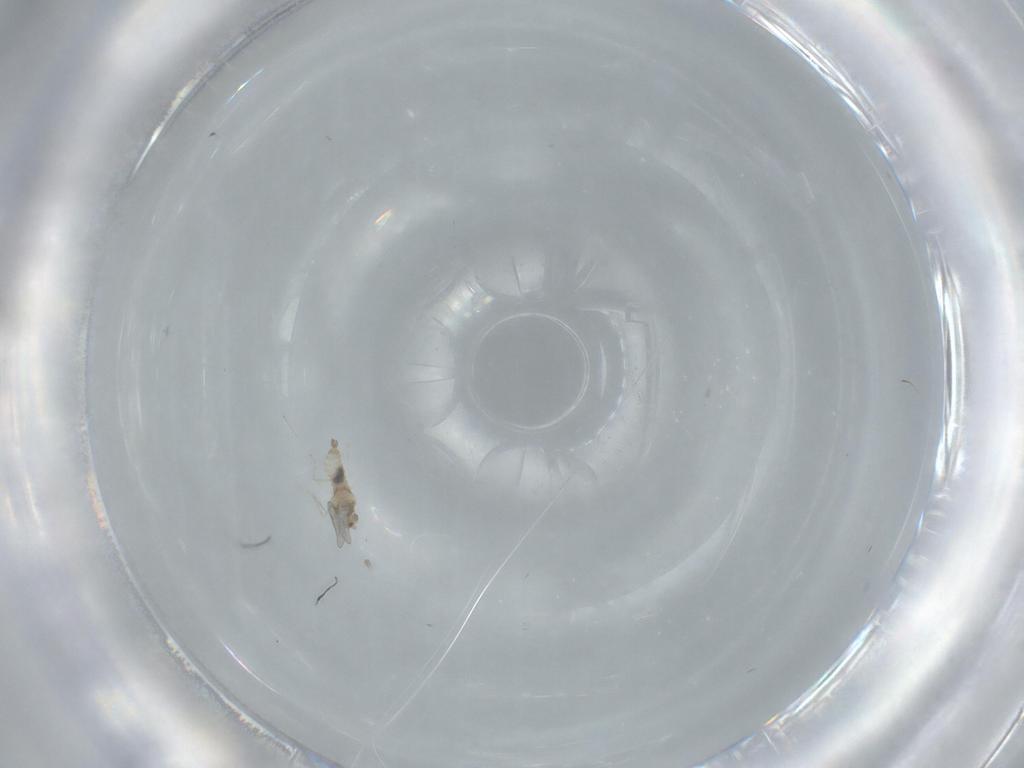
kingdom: Animalia
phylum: Arthropoda
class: Insecta
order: Diptera
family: Cecidomyiidae
